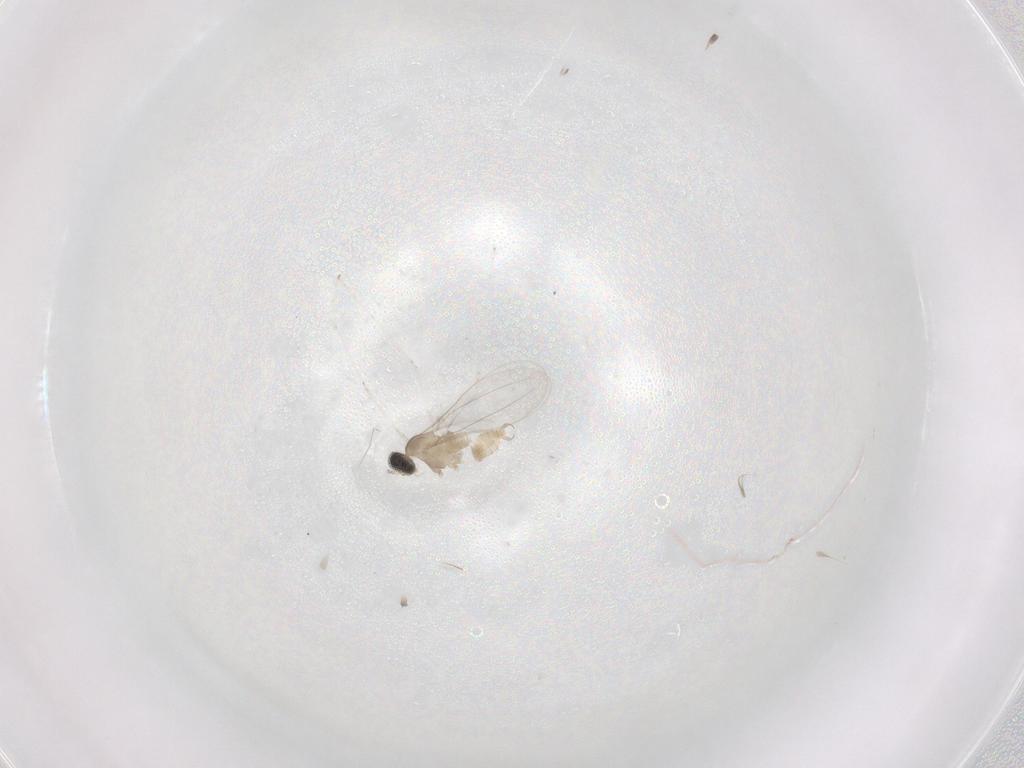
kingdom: Animalia
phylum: Arthropoda
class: Insecta
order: Diptera
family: Cecidomyiidae
